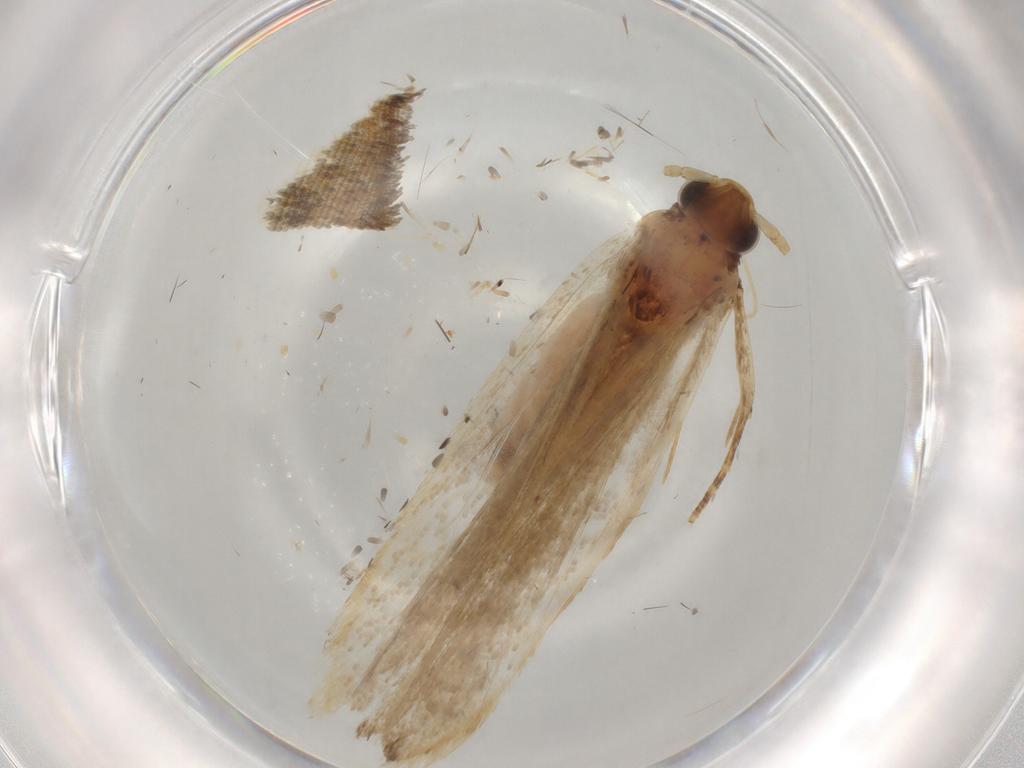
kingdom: Animalia
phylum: Arthropoda
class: Insecta
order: Lepidoptera
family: Lecithoceridae
